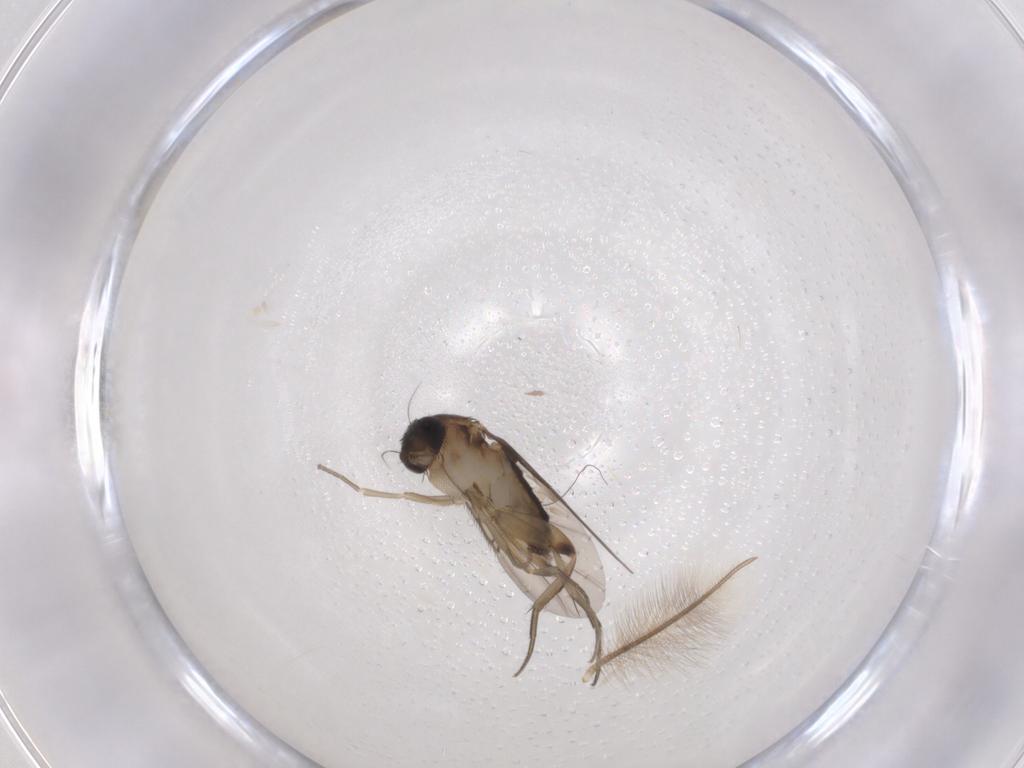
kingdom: Animalia
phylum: Arthropoda
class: Insecta
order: Diptera
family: Phoridae
